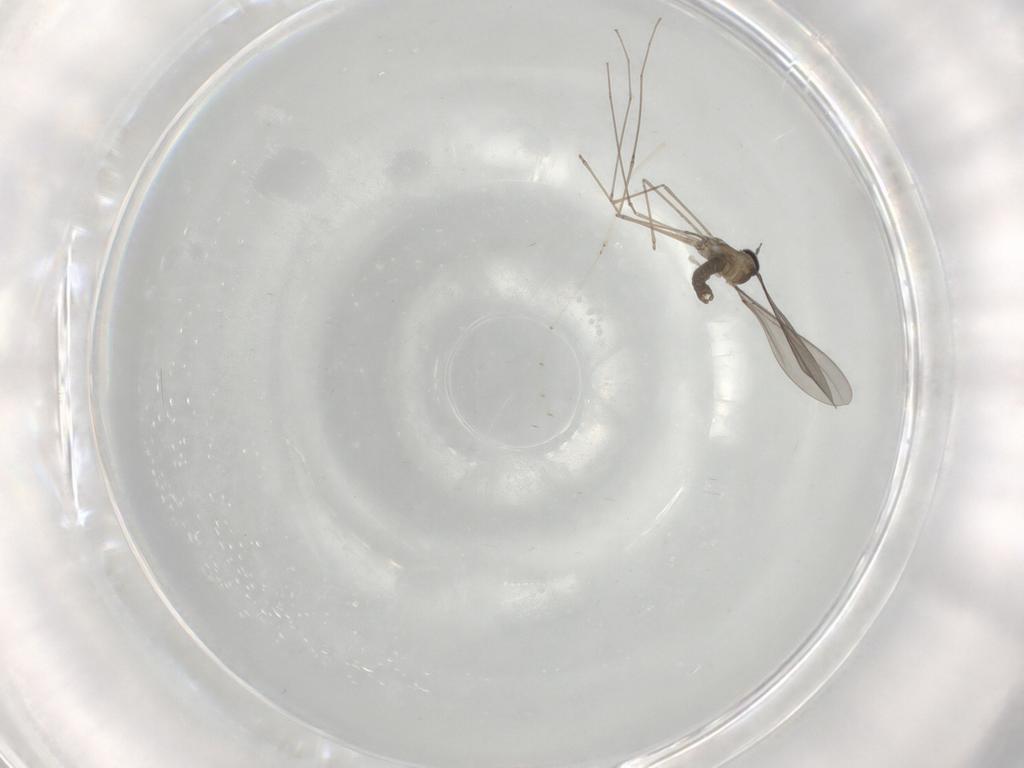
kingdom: Animalia
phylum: Arthropoda
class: Insecta
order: Diptera
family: Cecidomyiidae
